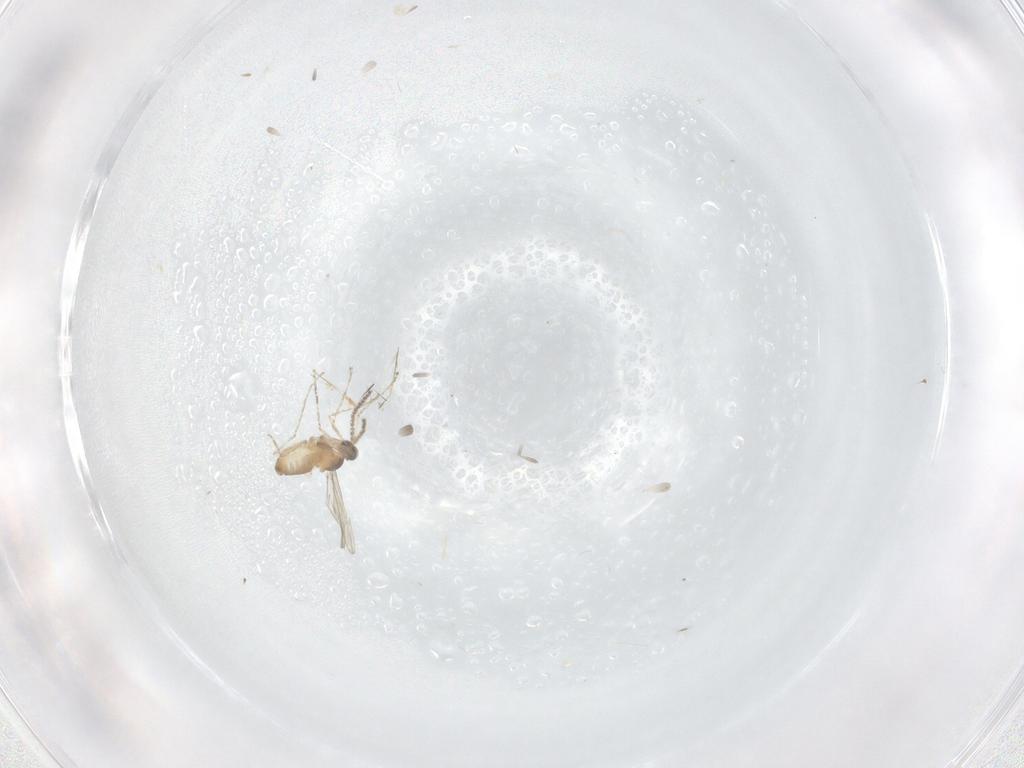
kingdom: Animalia
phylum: Arthropoda
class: Insecta
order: Diptera
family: Cecidomyiidae
